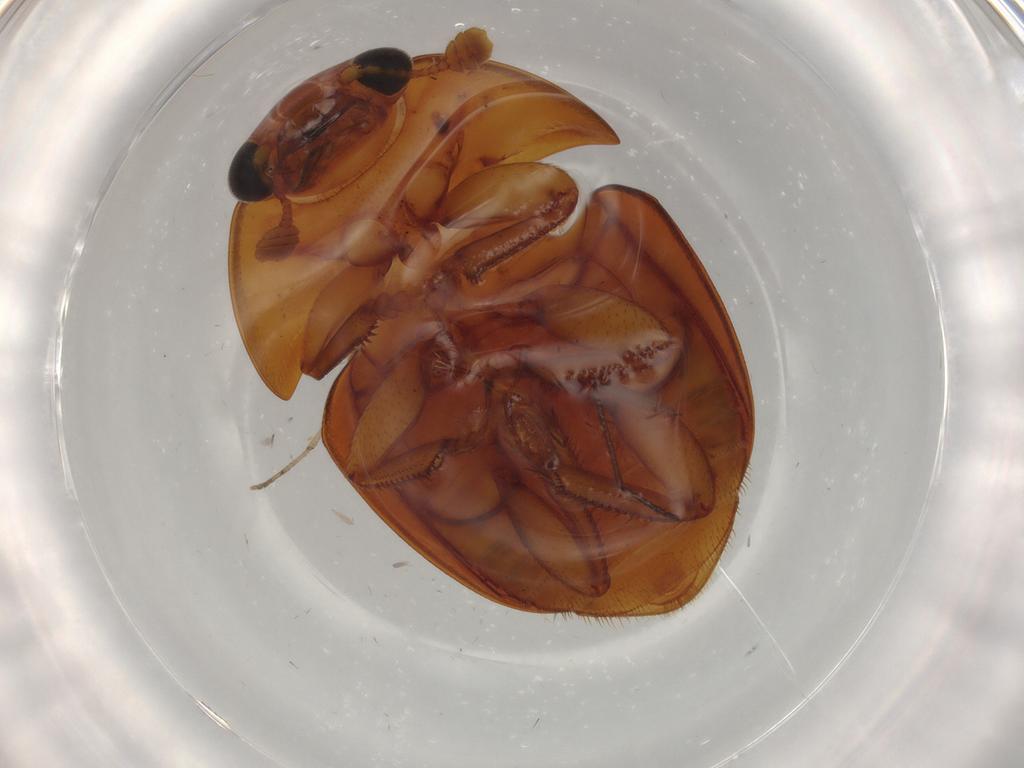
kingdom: Animalia
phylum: Arthropoda
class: Insecta
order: Coleoptera
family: Nitidulidae
